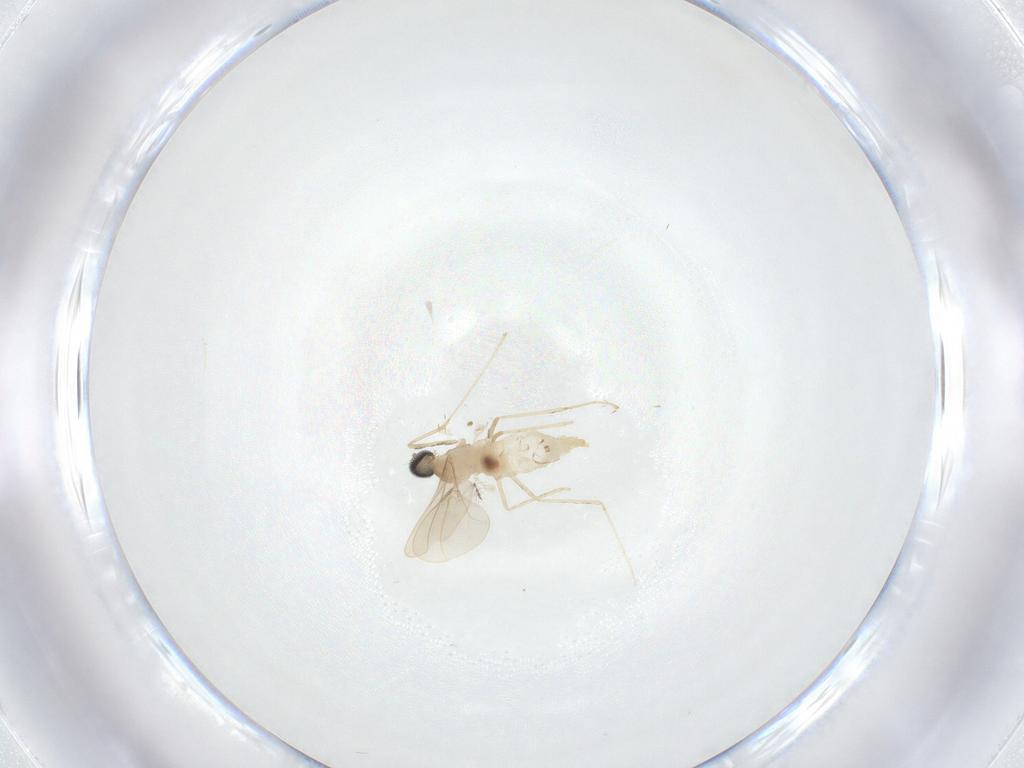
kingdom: Animalia
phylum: Arthropoda
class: Insecta
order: Diptera
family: Cecidomyiidae
